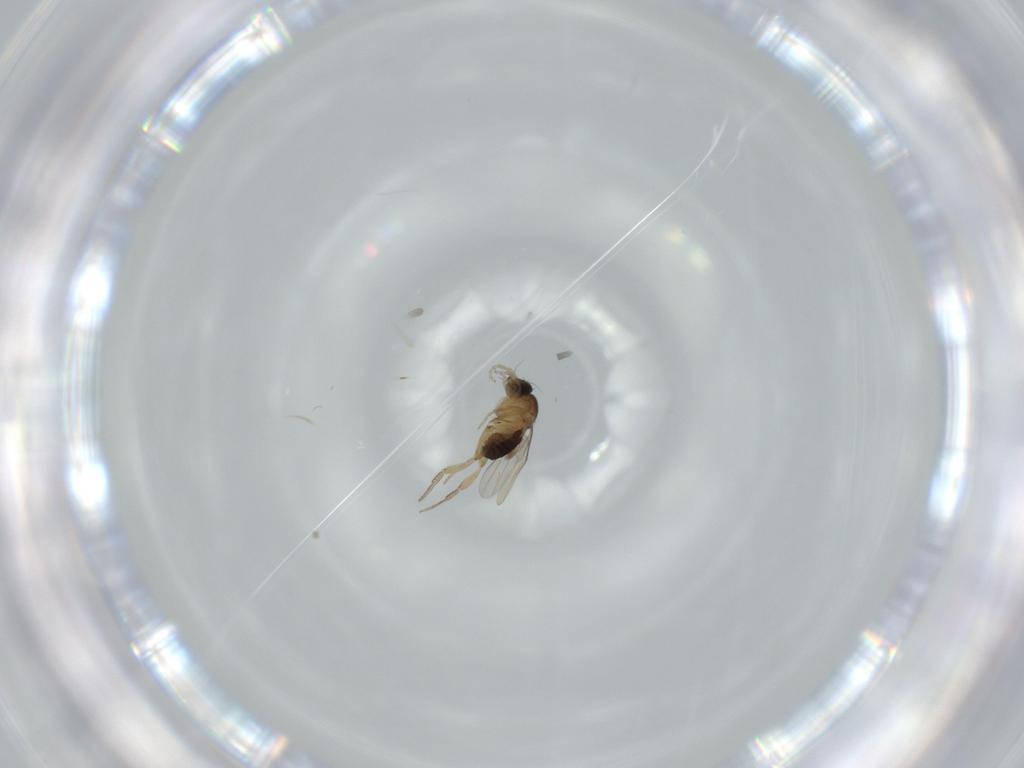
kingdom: Animalia
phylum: Arthropoda
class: Insecta
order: Diptera
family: Phoridae
